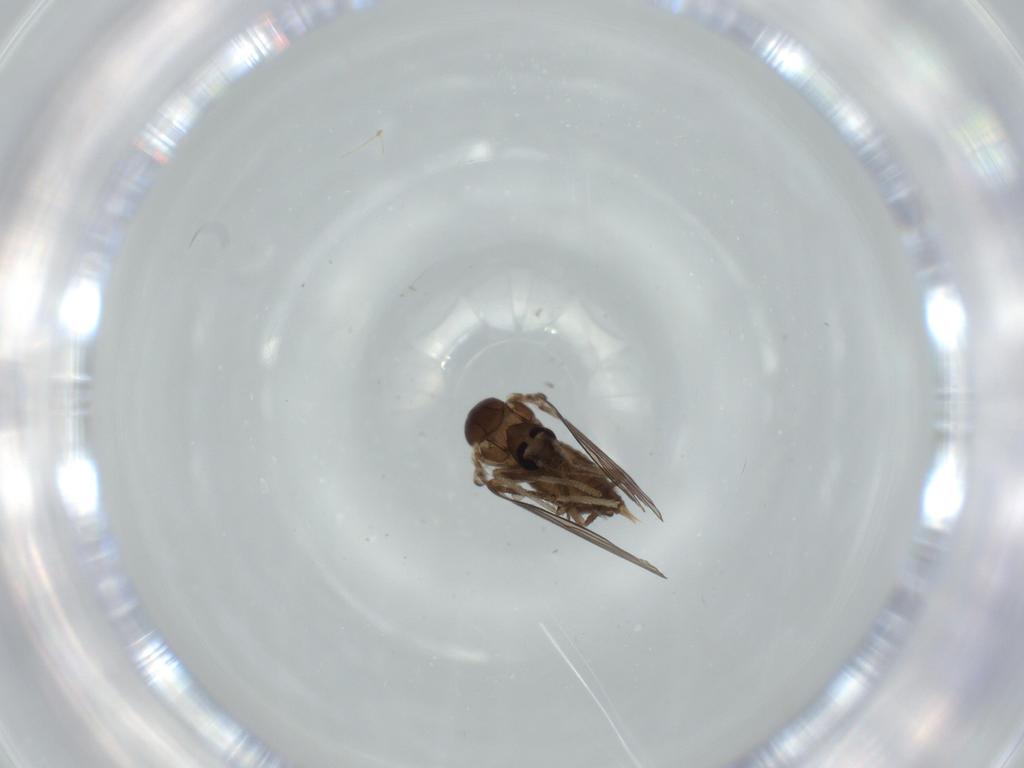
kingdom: Animalia
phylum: Arthropoda
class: Insecta
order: Diptera
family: Psychodidae
